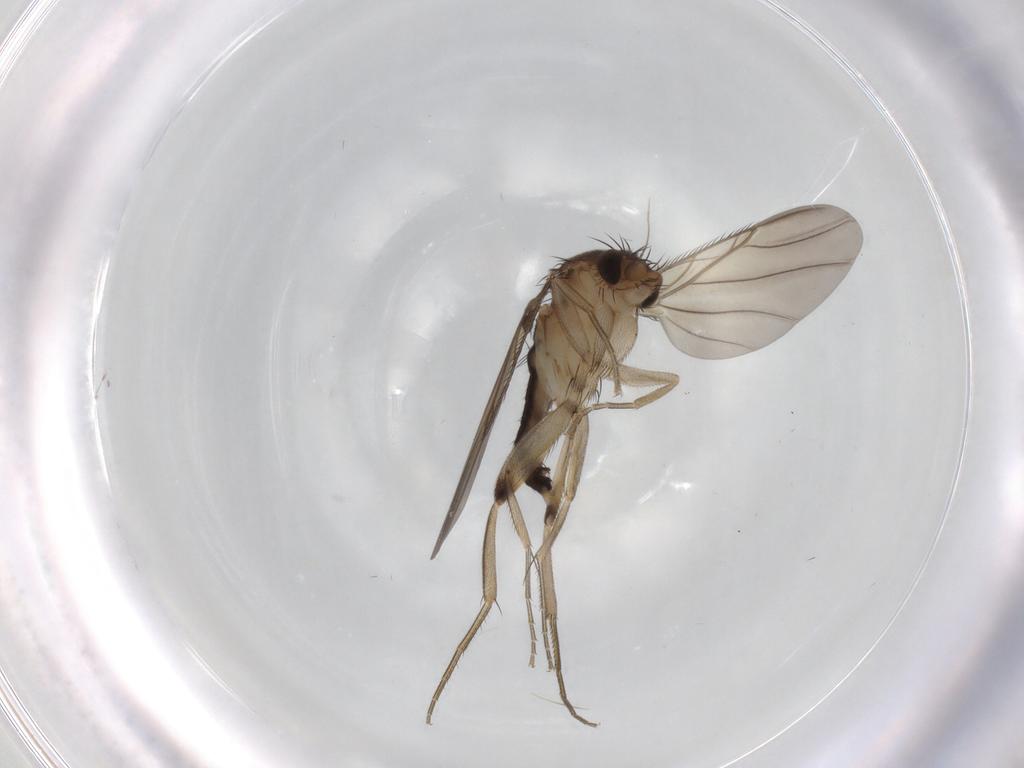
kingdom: Animalia
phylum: Arthropoda
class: Insecta
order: Diptera
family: Phoridae
